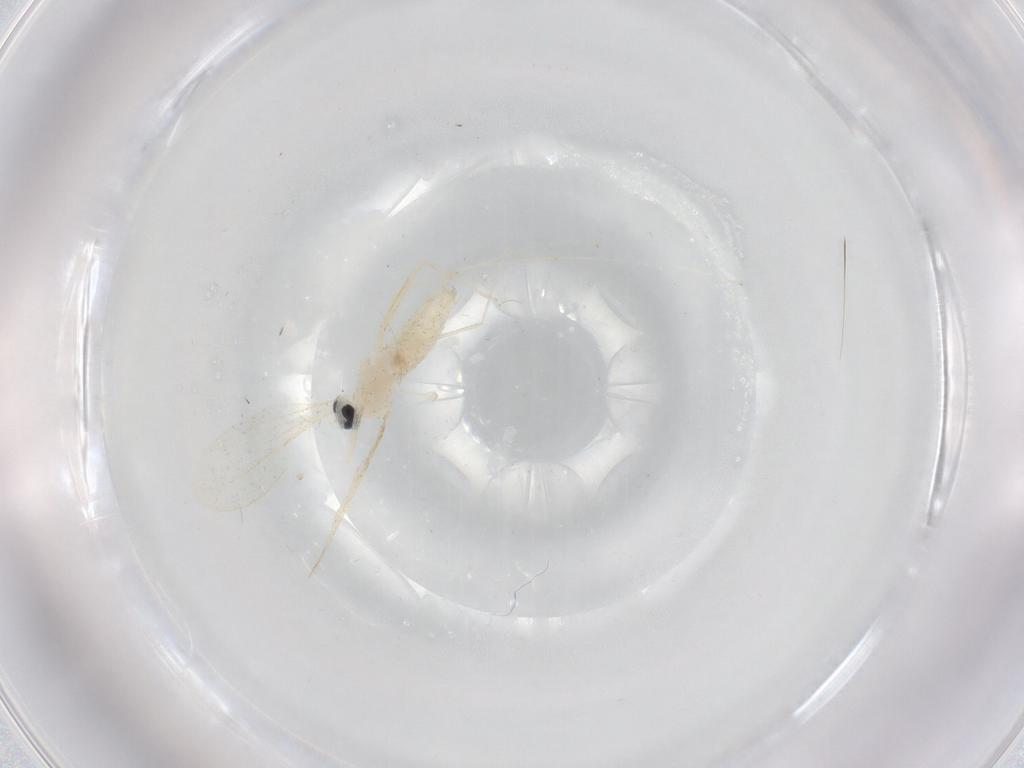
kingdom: Animalia
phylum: Arthropoda
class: Insecta
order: Diptera
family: Cecidomyiidae
